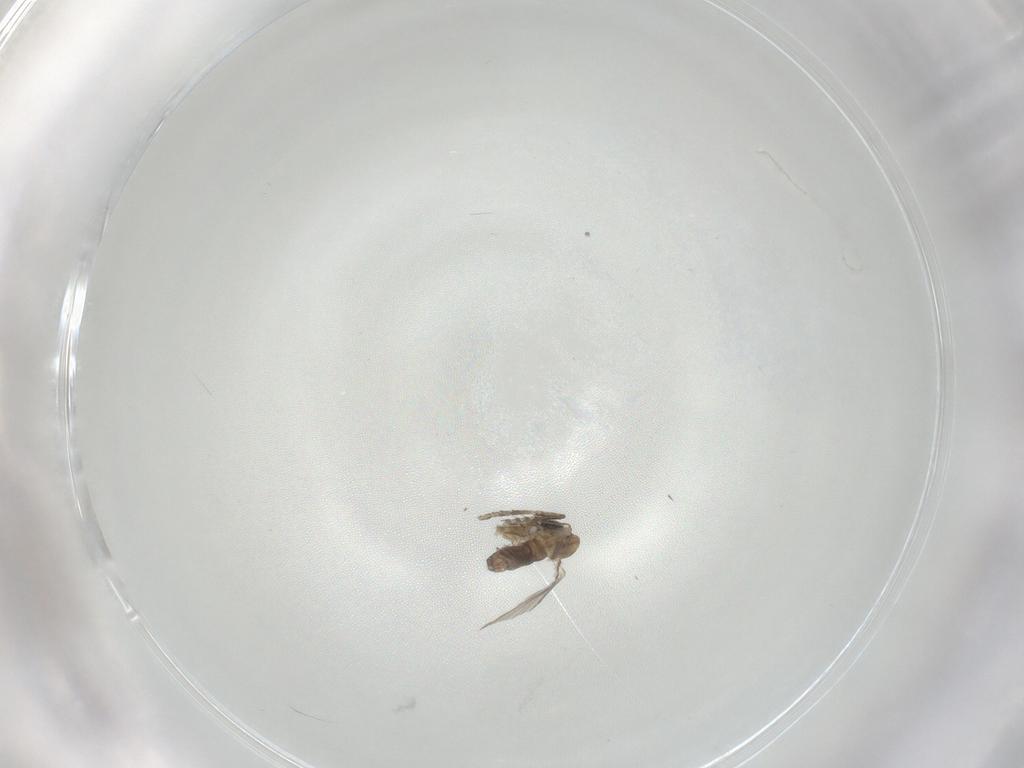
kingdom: Animalia
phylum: Arthropoda
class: Insecta
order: Diptera
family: Psychodidae
